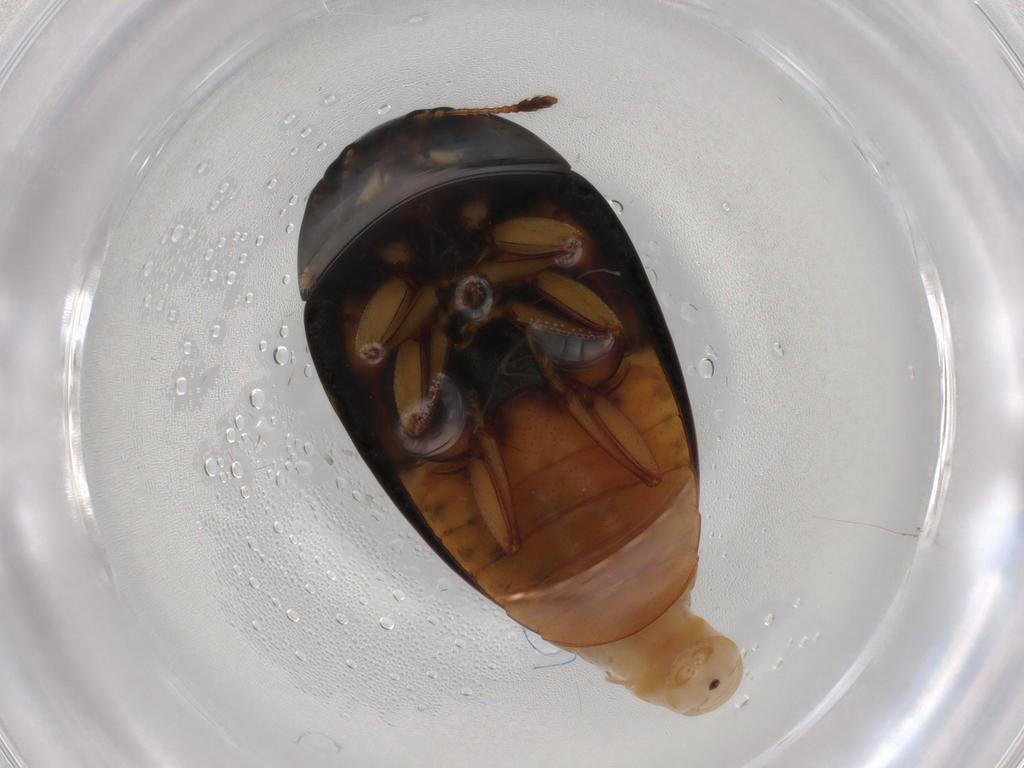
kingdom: Animalia
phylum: Arthropoda
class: Insecta
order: Coleoptera
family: Erotylidae
